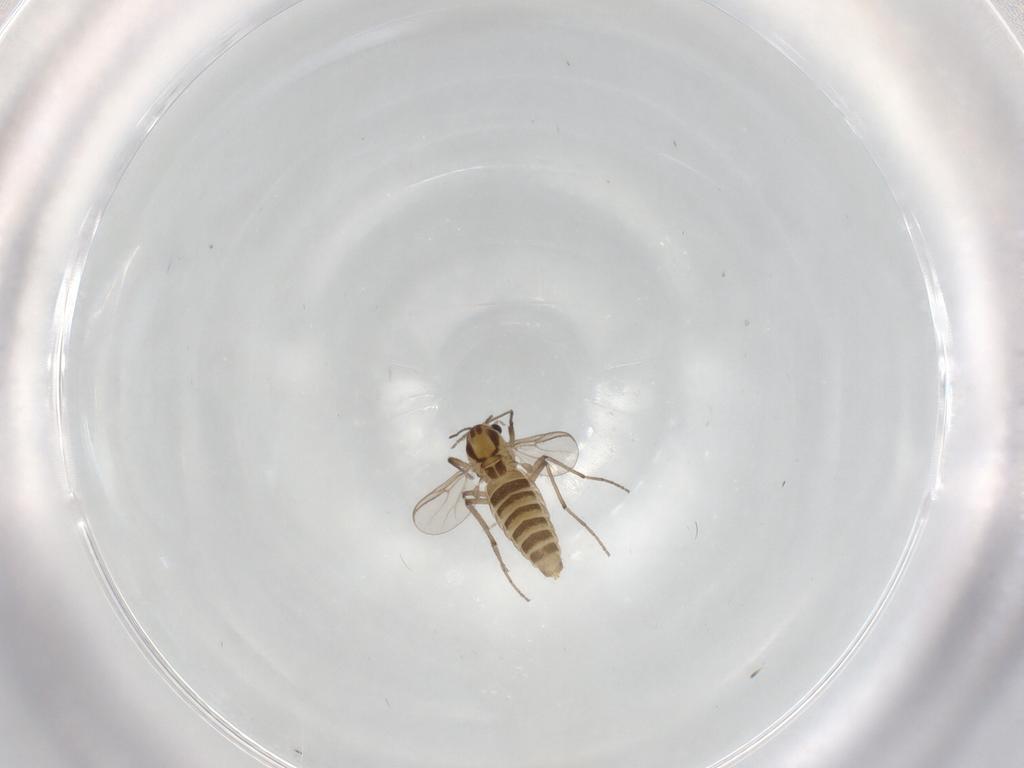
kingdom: Animalia
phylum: Arthropoda
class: Insecta
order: Diptera
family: Chironomidae
